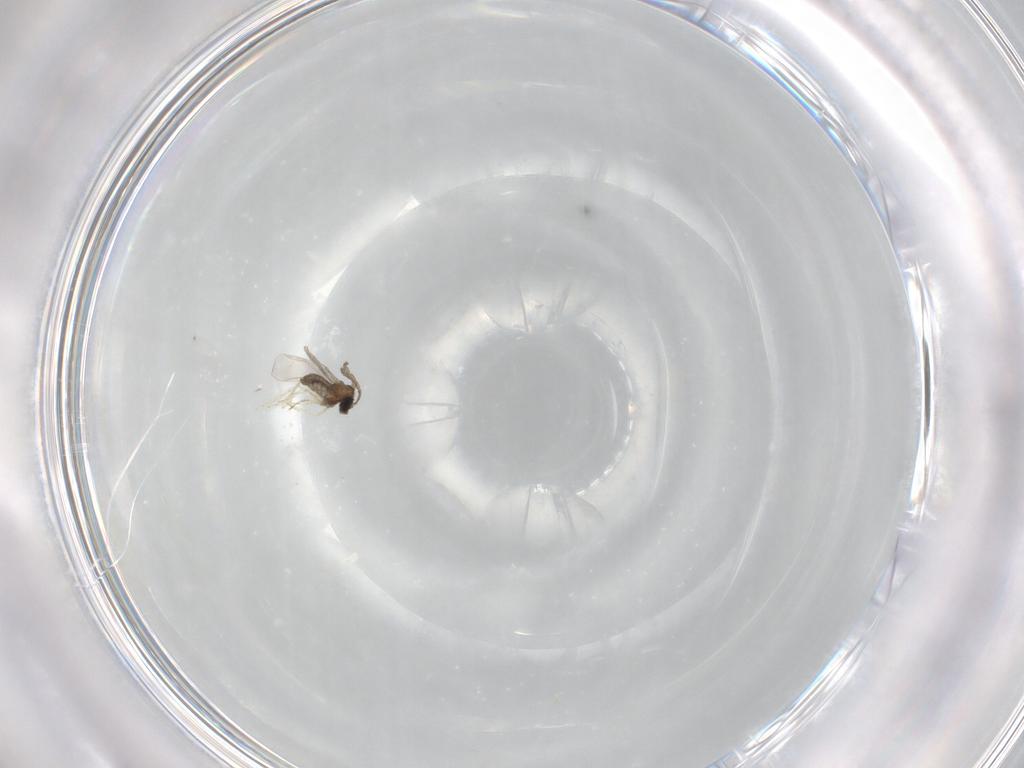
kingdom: Animalia
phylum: Arthropoda
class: Insecta
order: Diptera
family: Cecidomyiidae
